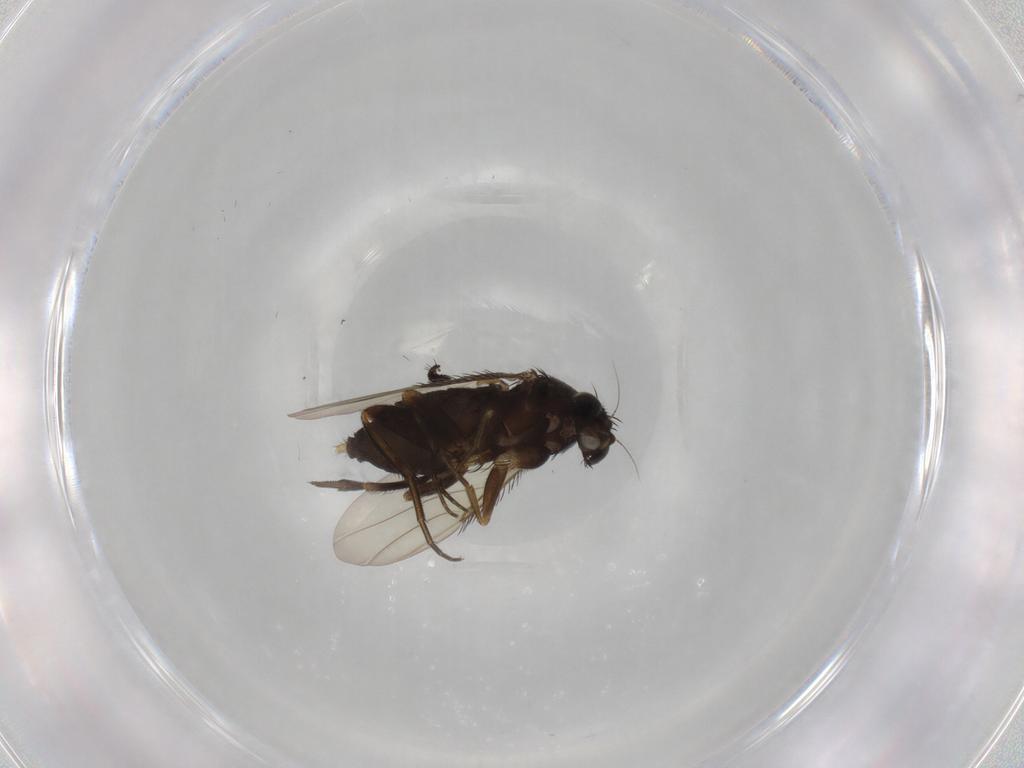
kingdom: Animalia
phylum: Arthropoda
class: Insecta
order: Diptera
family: Phoridae
